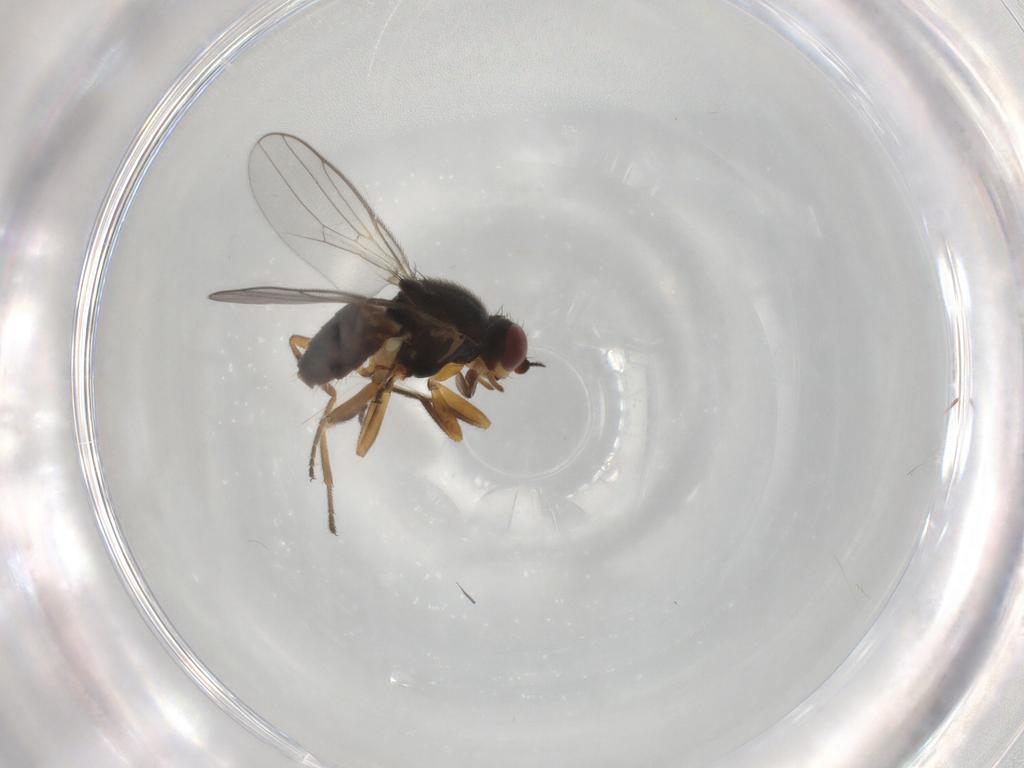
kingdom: Animalia
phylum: Arthropoda
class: Insecta
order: Diptera
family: Chloropidae
